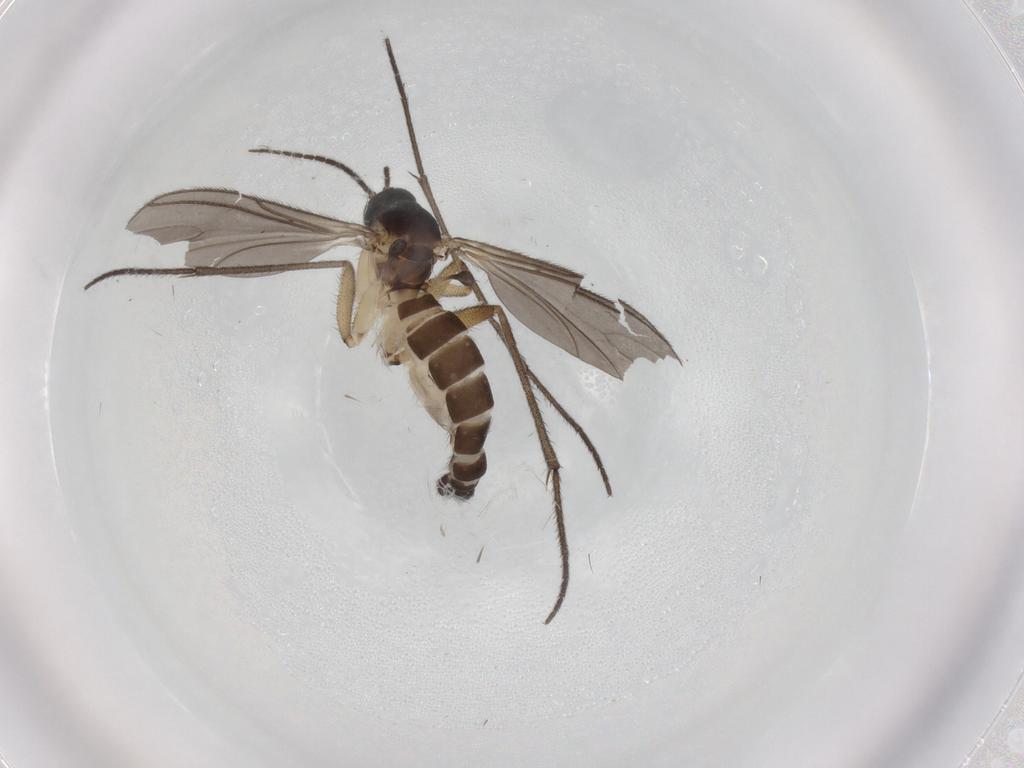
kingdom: Animalia
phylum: Arthropoda
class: Insecta
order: Diptera
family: Sciaridae
